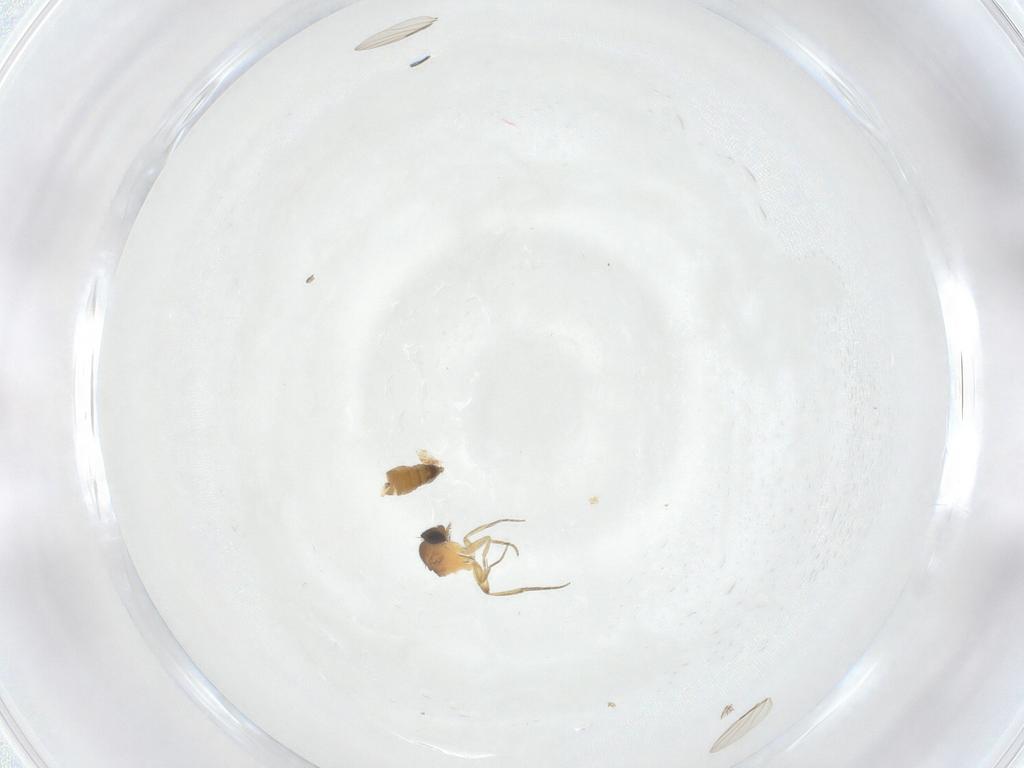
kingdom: Animalia
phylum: Arthropoda
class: Insecta
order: Diptera
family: Phoridae
